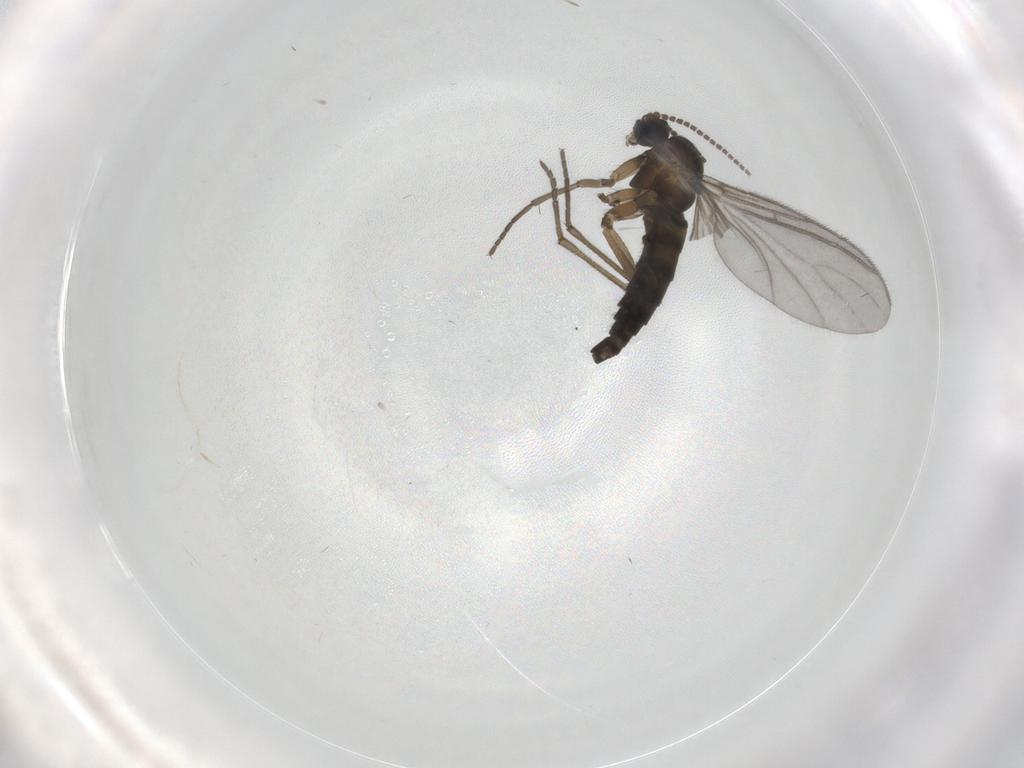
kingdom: Animalia
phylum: Arthropoda
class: Insecta
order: Diptera
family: Sciaridae
